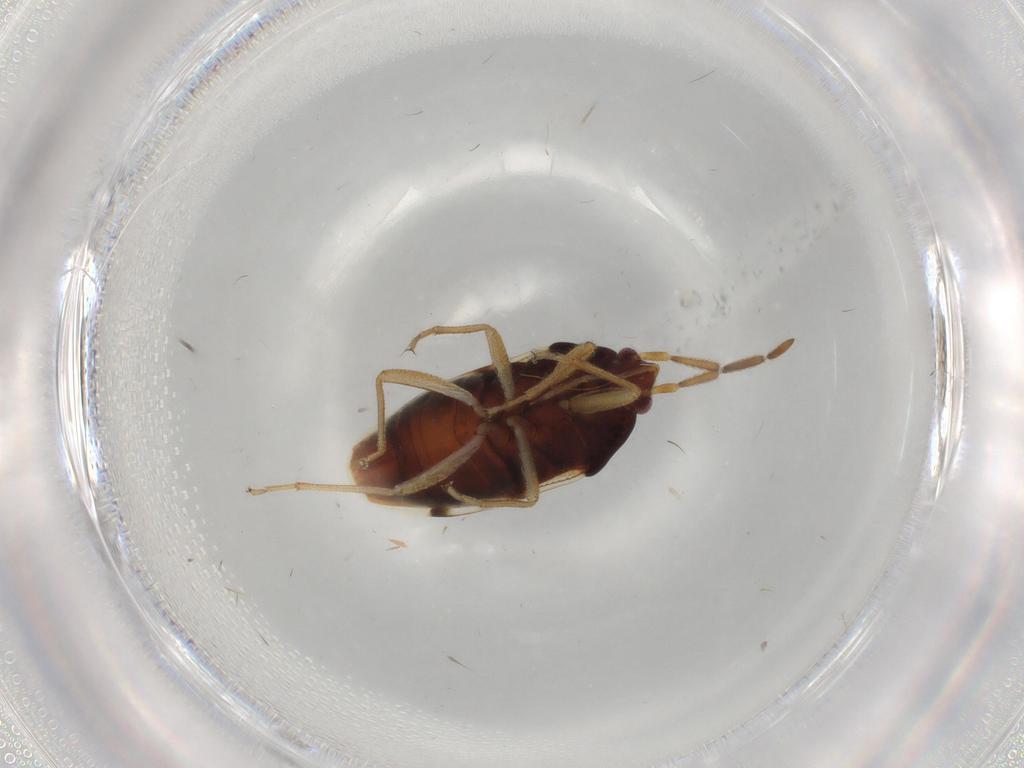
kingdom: Animalia
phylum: Arthropoda
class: Insecta
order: Hemiptera
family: Rhyparochromidae
